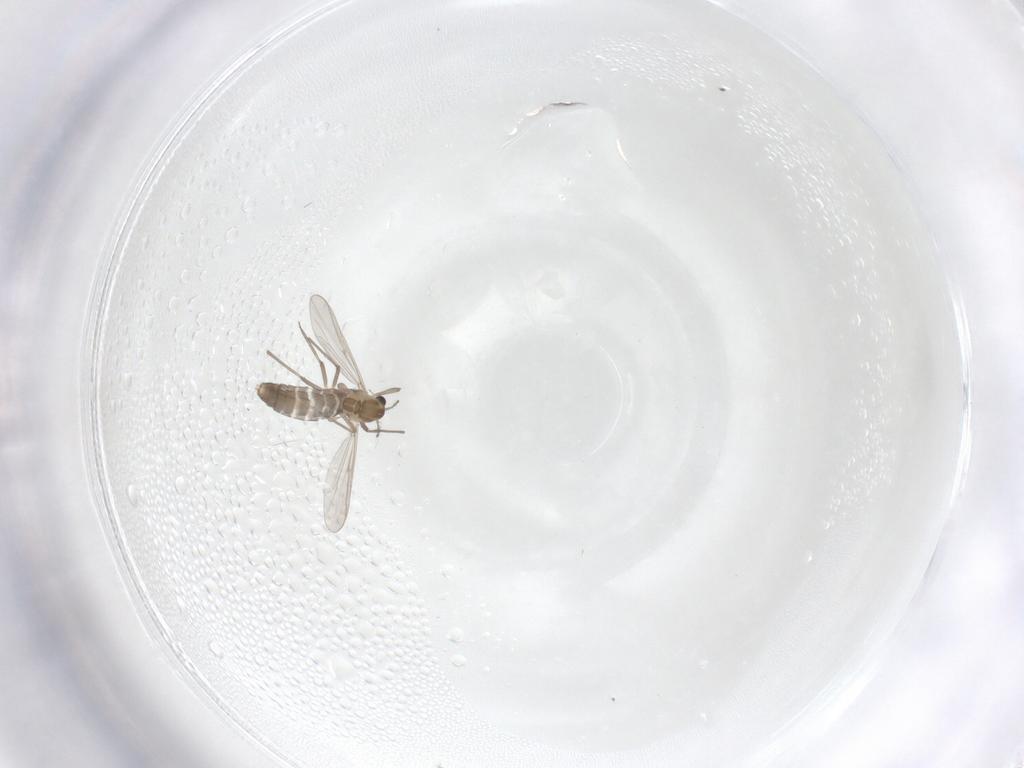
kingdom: Animalia
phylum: Arthropoda
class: Insecta
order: Diptera
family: Chironomidae
